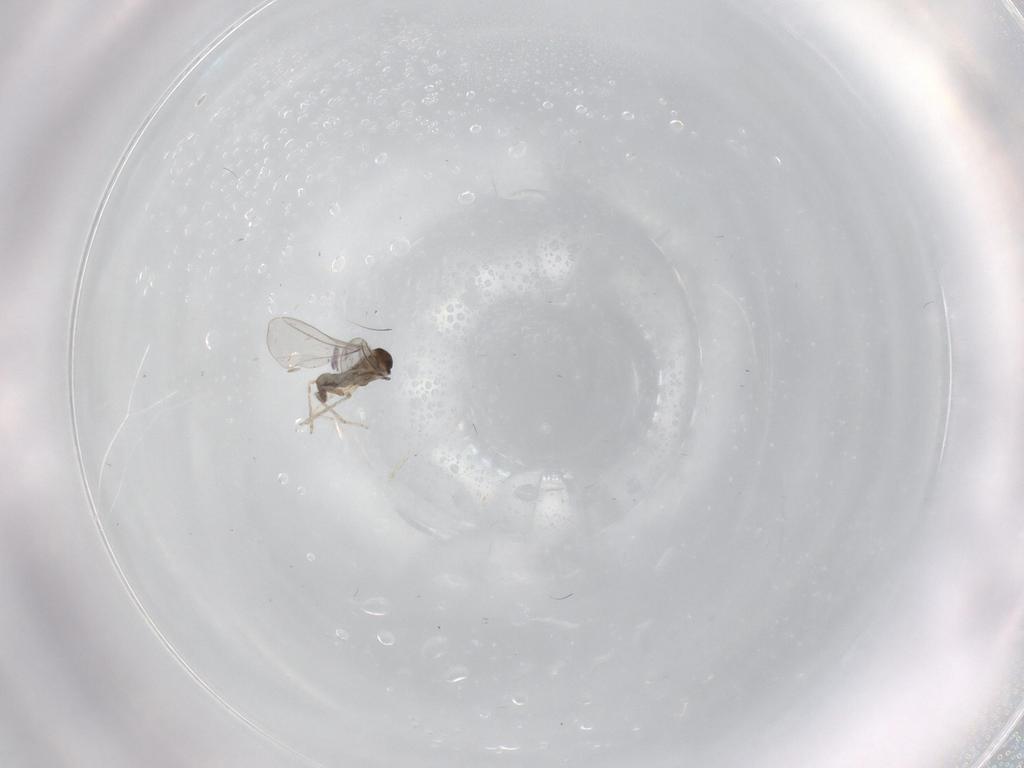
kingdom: Animalia
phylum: Arthropoda
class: Insecta
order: Diptera
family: Cecidomyiidae
